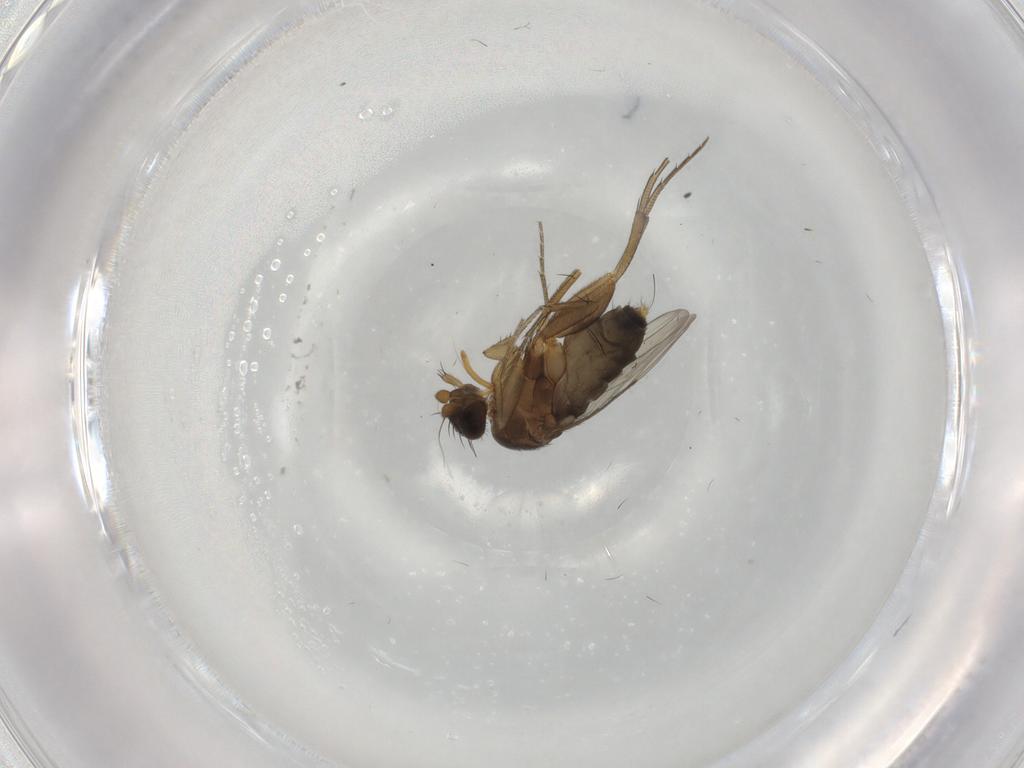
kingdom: Animalia
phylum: Arthropoda
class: Insecta
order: Diptera
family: Phoridae
